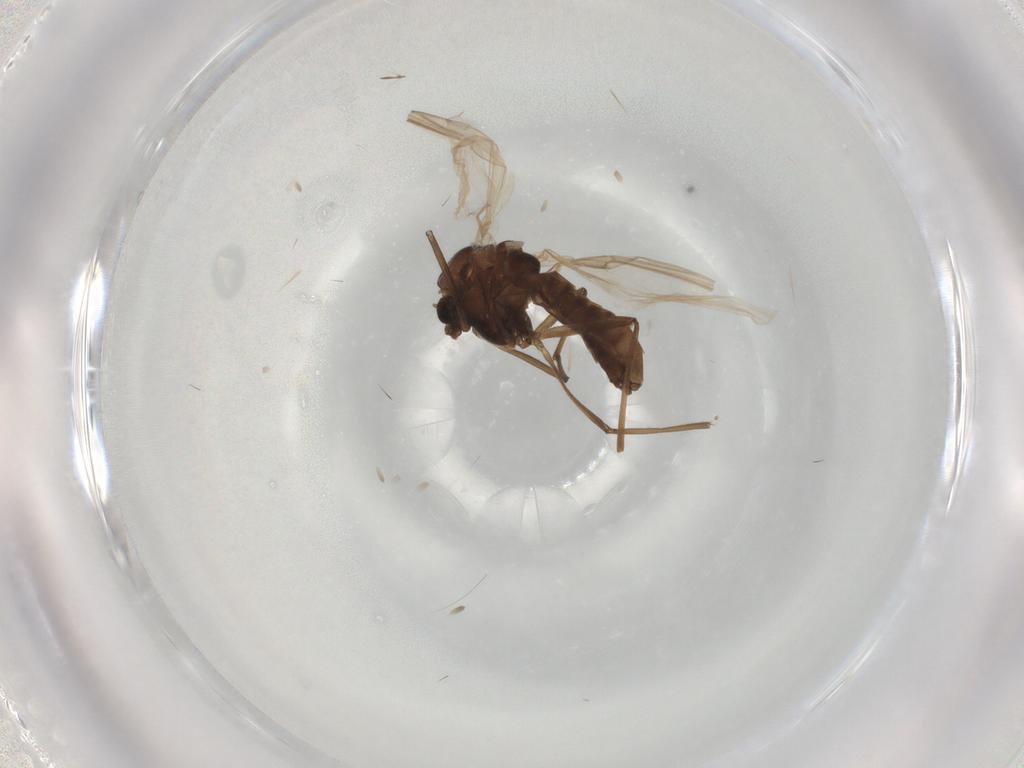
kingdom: Animalia
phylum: Arthropoda
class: Insecta
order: Diptera
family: Chironomidae
